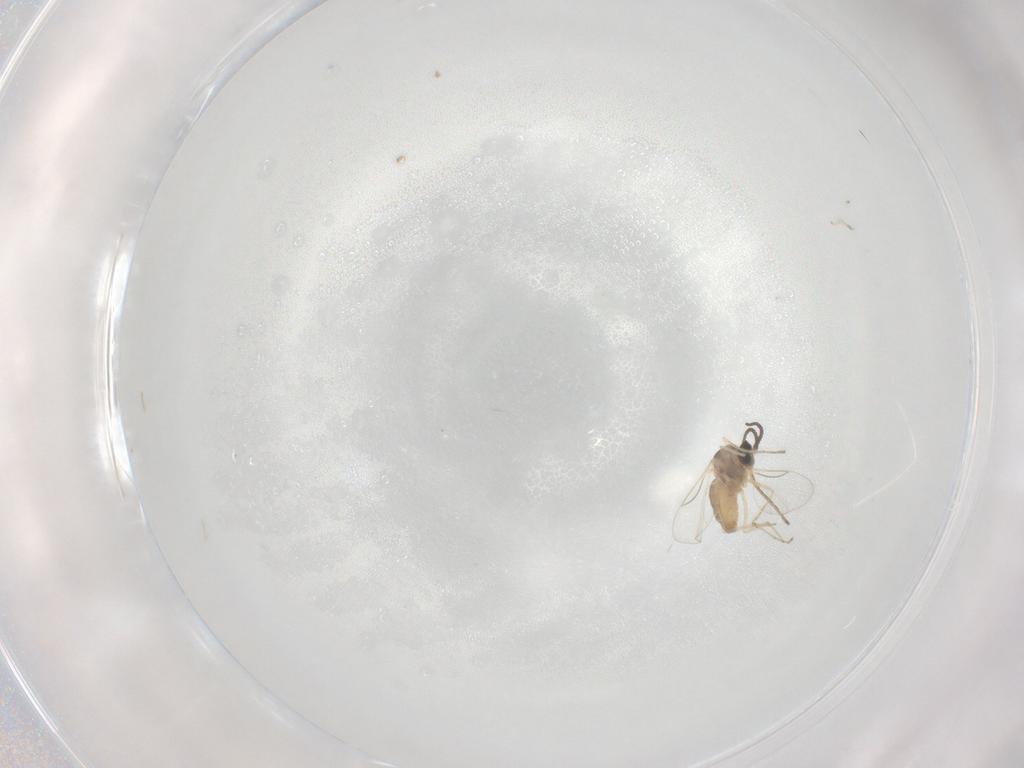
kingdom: Animalia
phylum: Arthropoda
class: Insecta
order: Diptera
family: Cecidomyiidae
